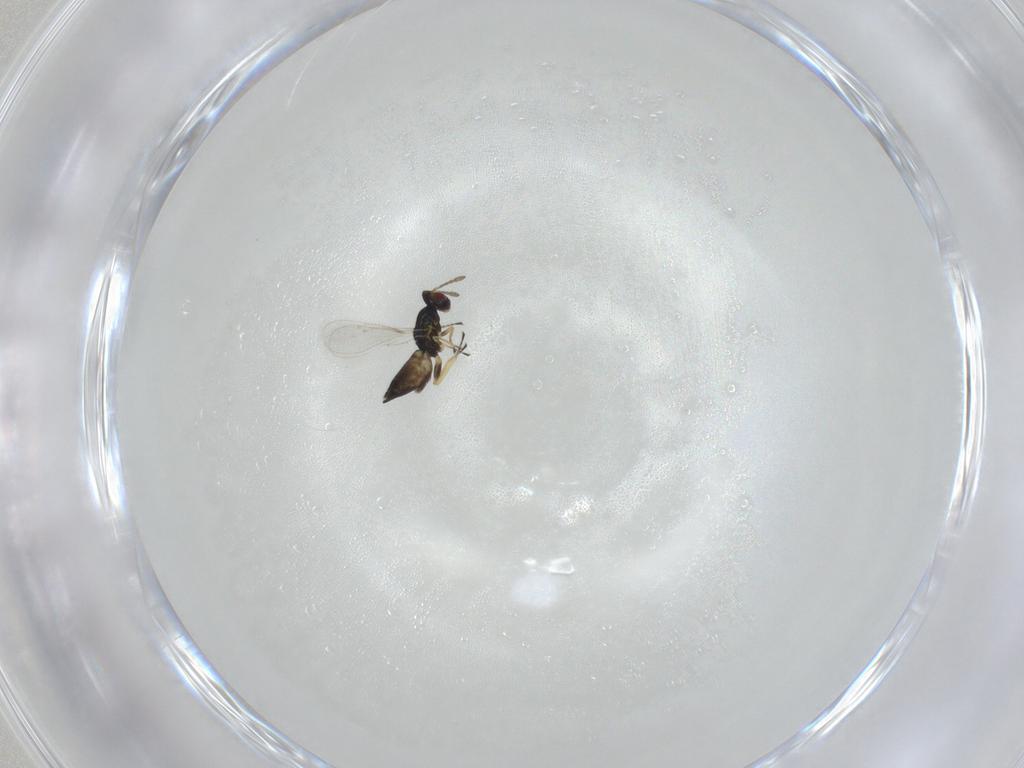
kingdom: Animalia
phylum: Arthropoda
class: Insecta
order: Hymenoptera
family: Eulophidae
